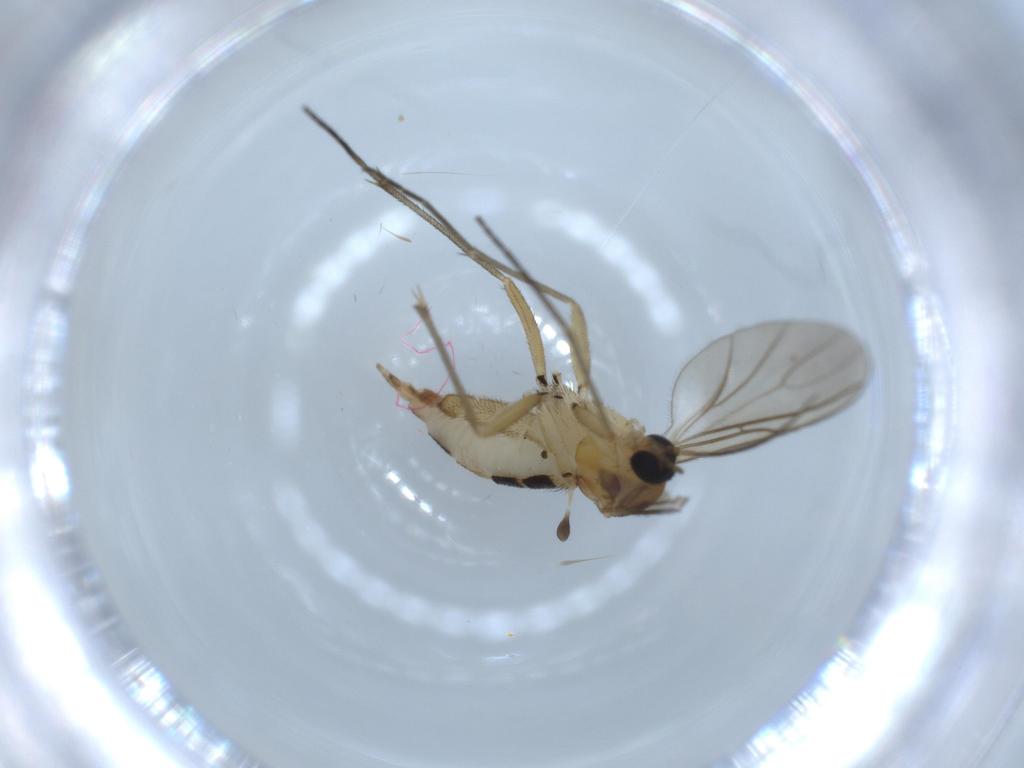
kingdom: Animalia
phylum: Arthropoda
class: Insecta
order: Diptera
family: Sciaridae
